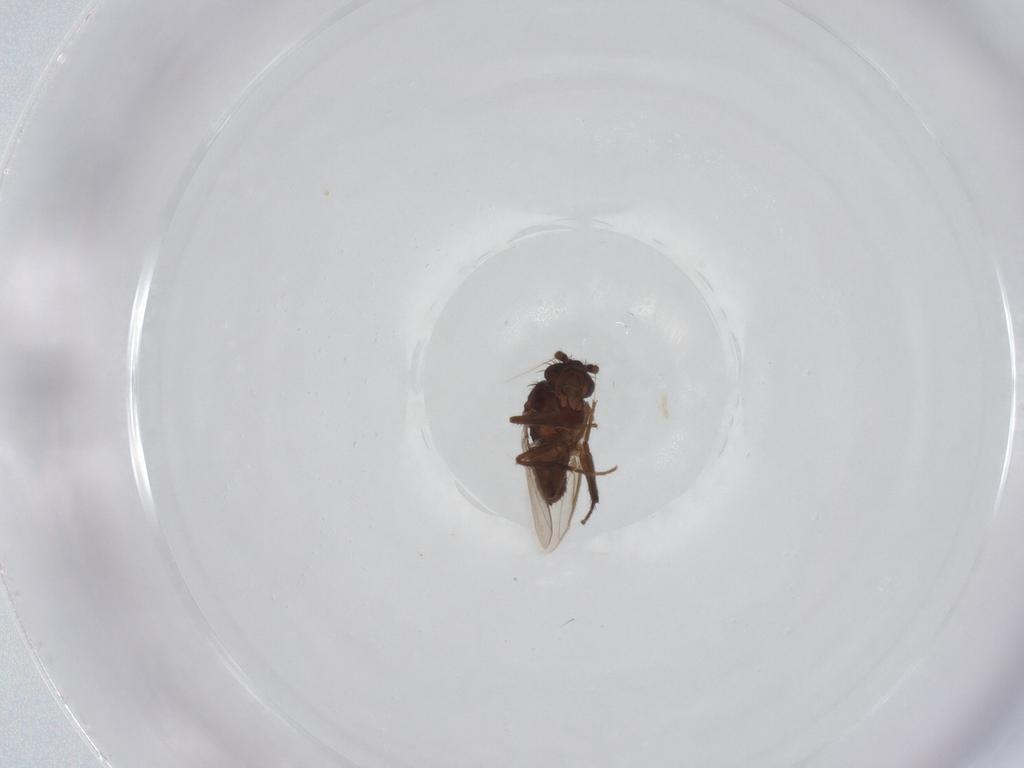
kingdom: Animalia
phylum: Arthropoda
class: Insecta
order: Diptera
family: Sphaeroceridae
